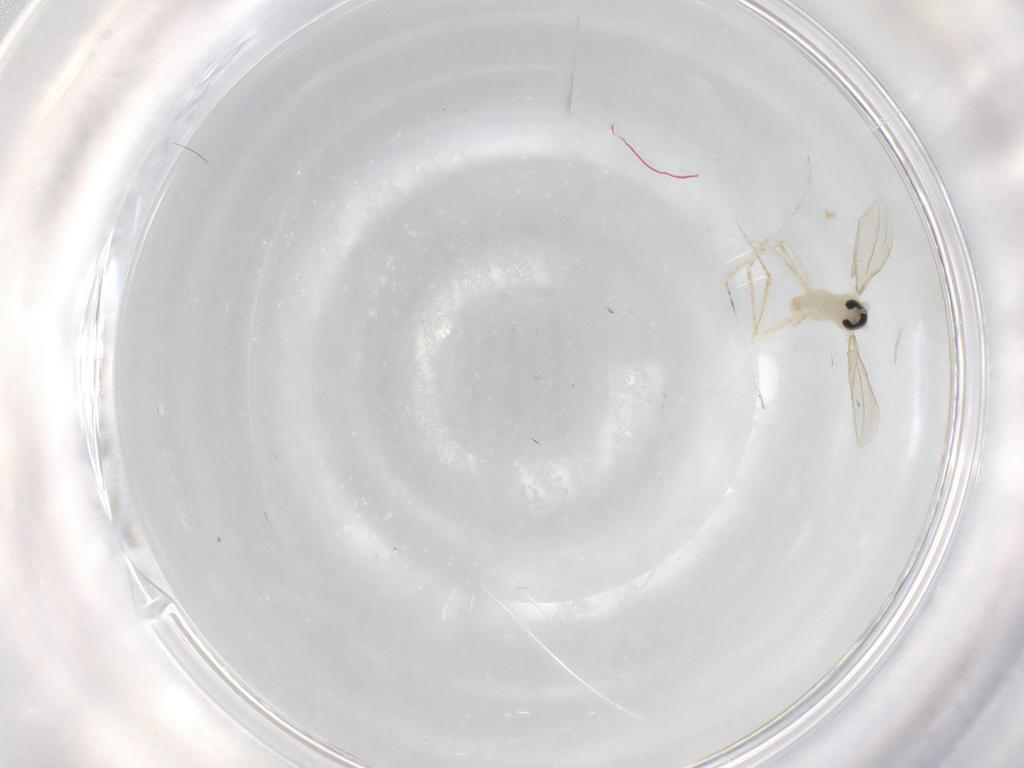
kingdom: Animalia
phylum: Arthropoda
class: Insecta
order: Diptera
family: Cecidomyiidae
